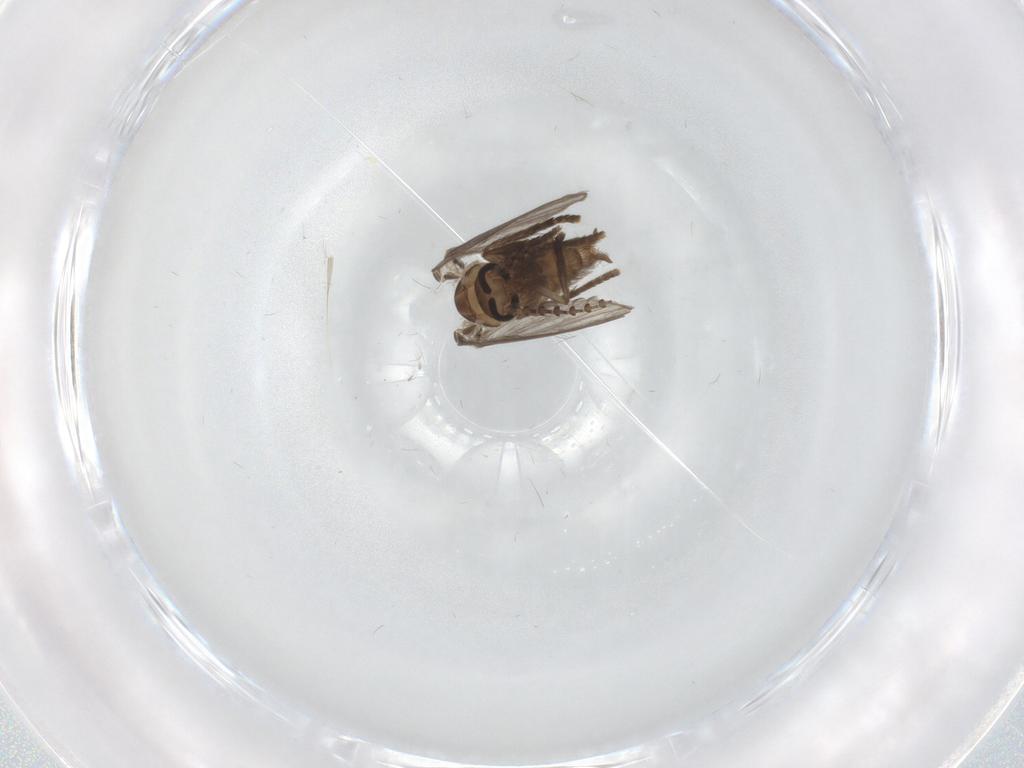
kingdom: Animalia
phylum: Arthropoda
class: Insecta
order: Diptera
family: Psychodidae
